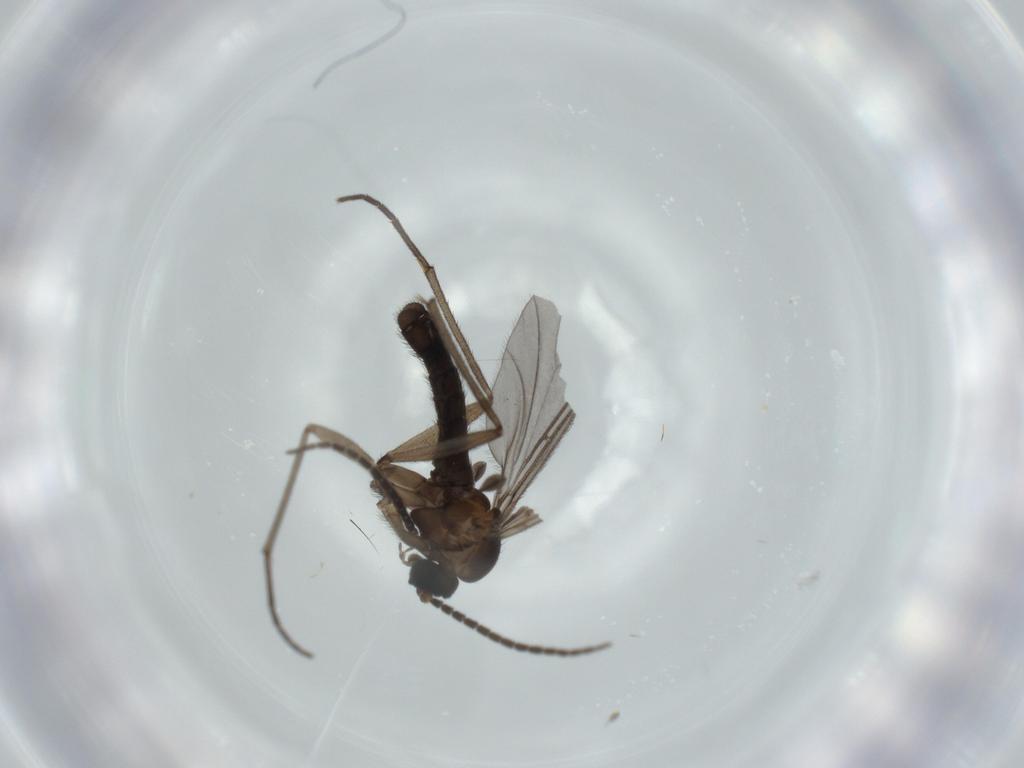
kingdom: Animalia
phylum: Arthropoda
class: Insecta
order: Diptera
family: Sciaridae
